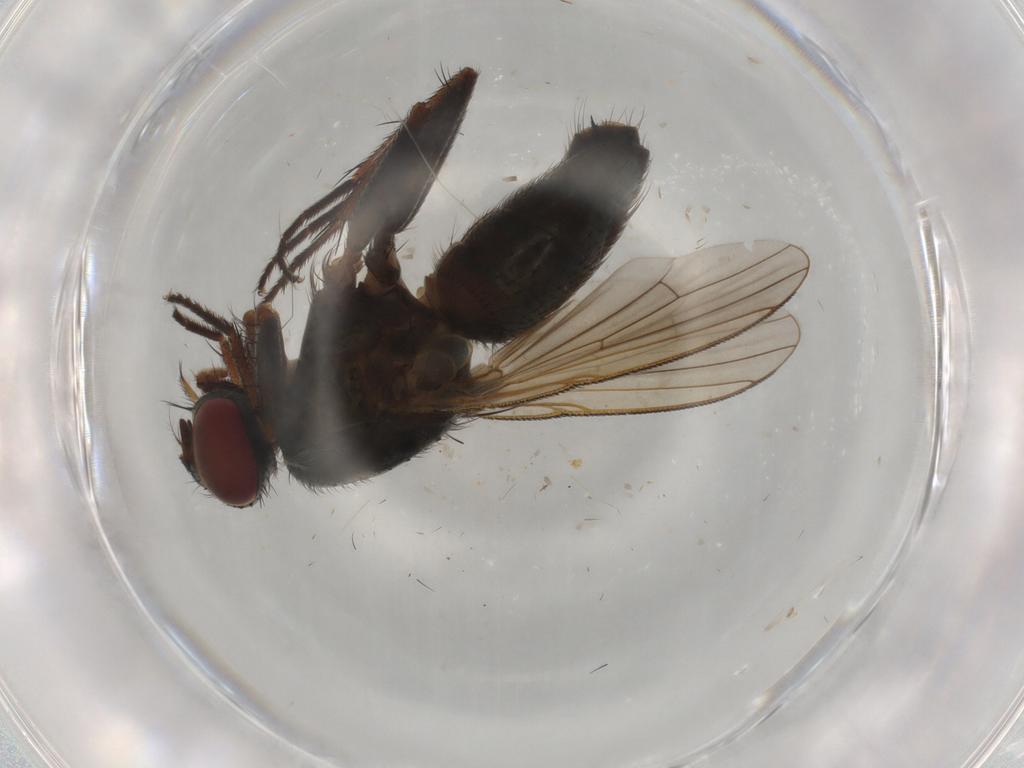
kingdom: Animalia
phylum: Arthropoda
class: Insecta
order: Diptera
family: Muscidae
